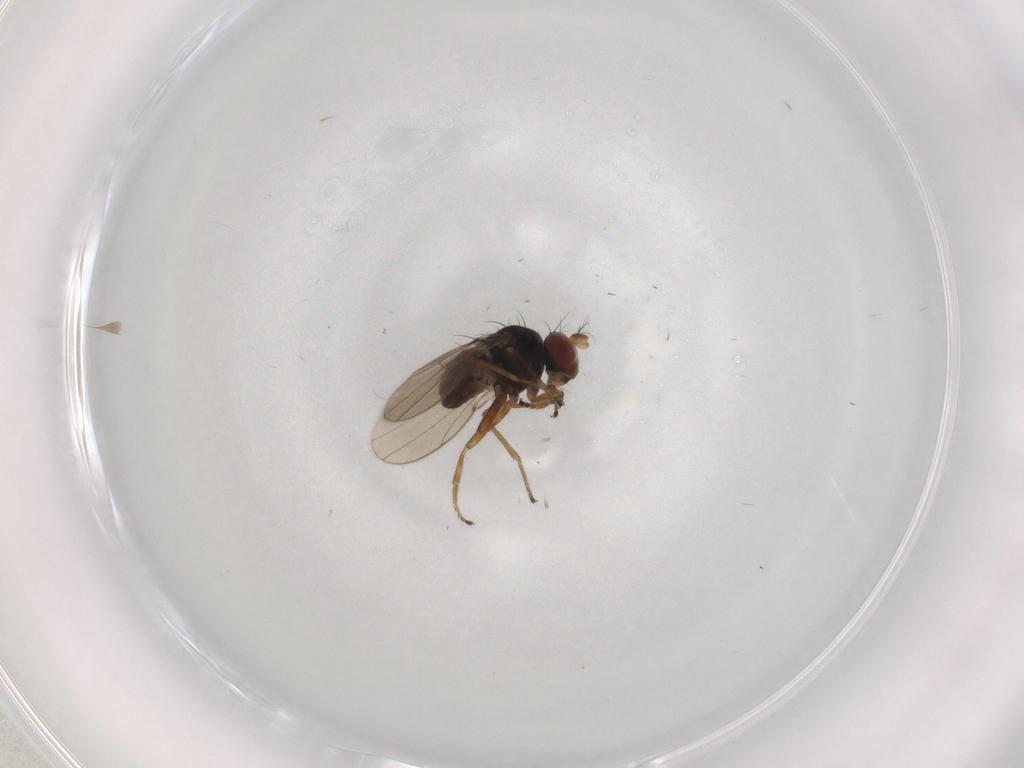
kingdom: Animalia
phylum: Arthropoda
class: Insecta
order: Diptera
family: Ephydridae
